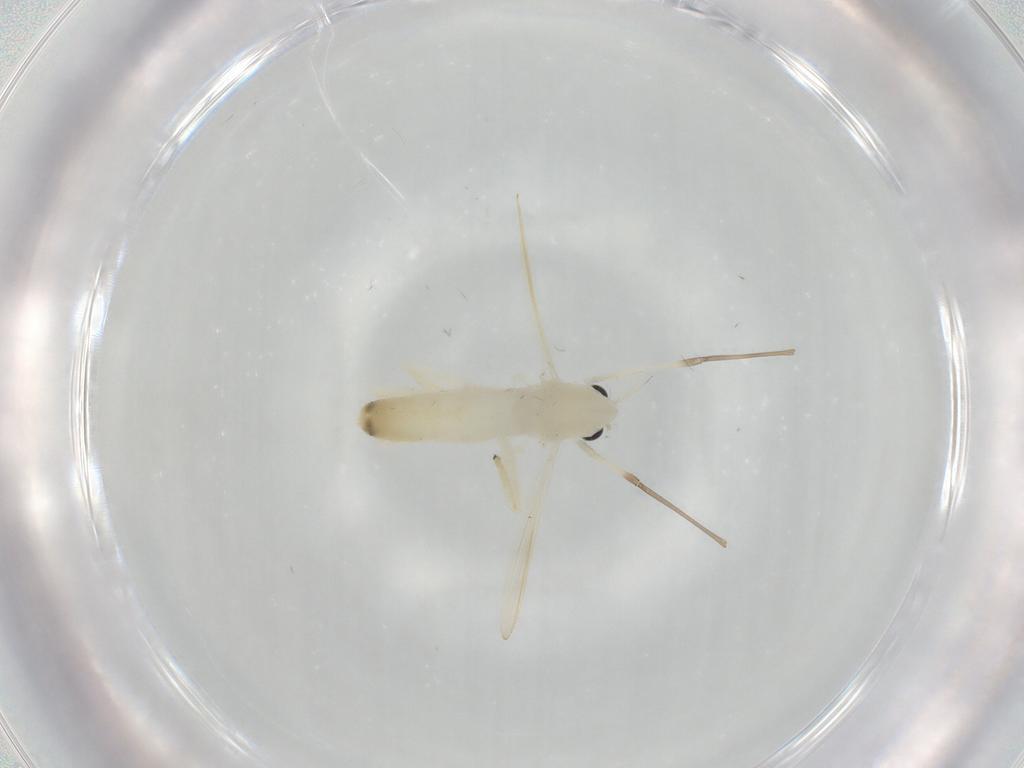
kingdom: Animalia
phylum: Arthropoda
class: Insecta
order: Diptera
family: Chironomidae
